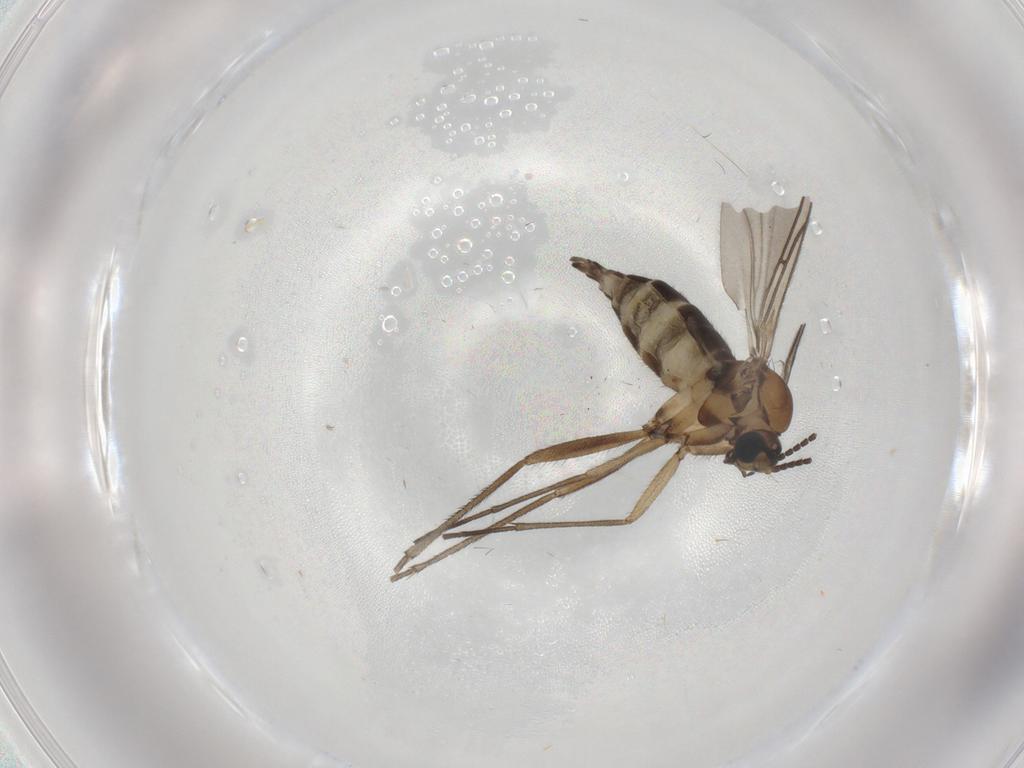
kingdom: Animalia
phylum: Arthropoda
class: Insecta
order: Diptera
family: Sciaridae
